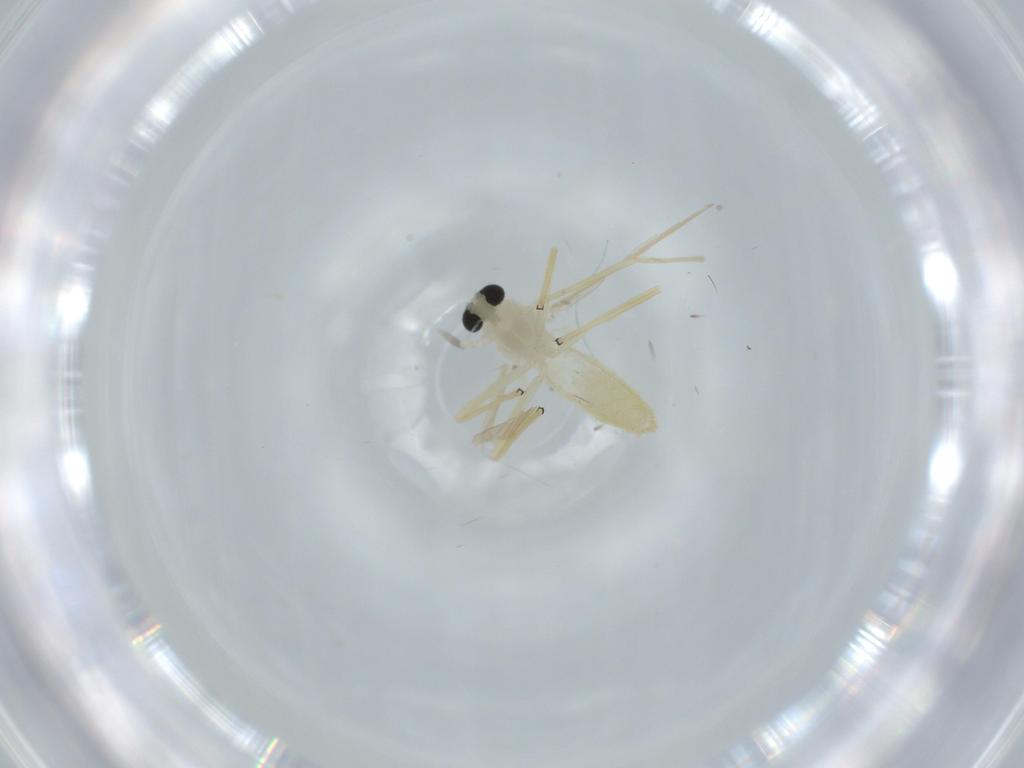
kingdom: Animalia
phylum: Arthropoda
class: Insecta
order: Diptera
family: Chironomidae
